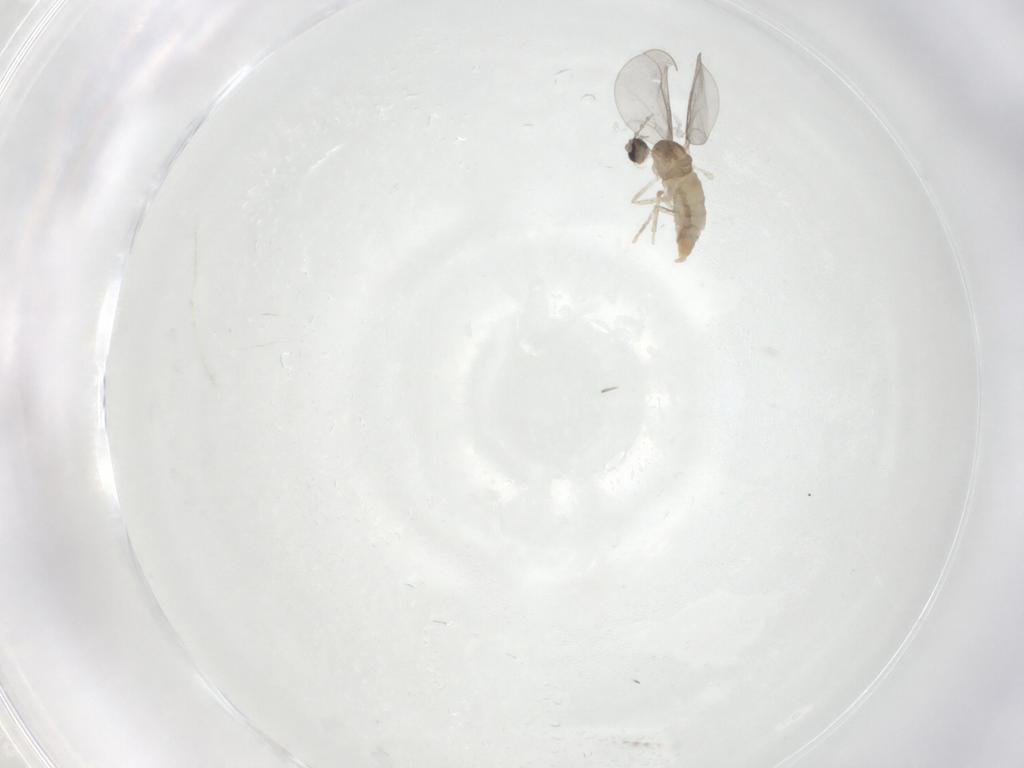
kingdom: Animalia
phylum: Arthropoda
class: Insecta
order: Diptera
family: Cecidomyiidae
